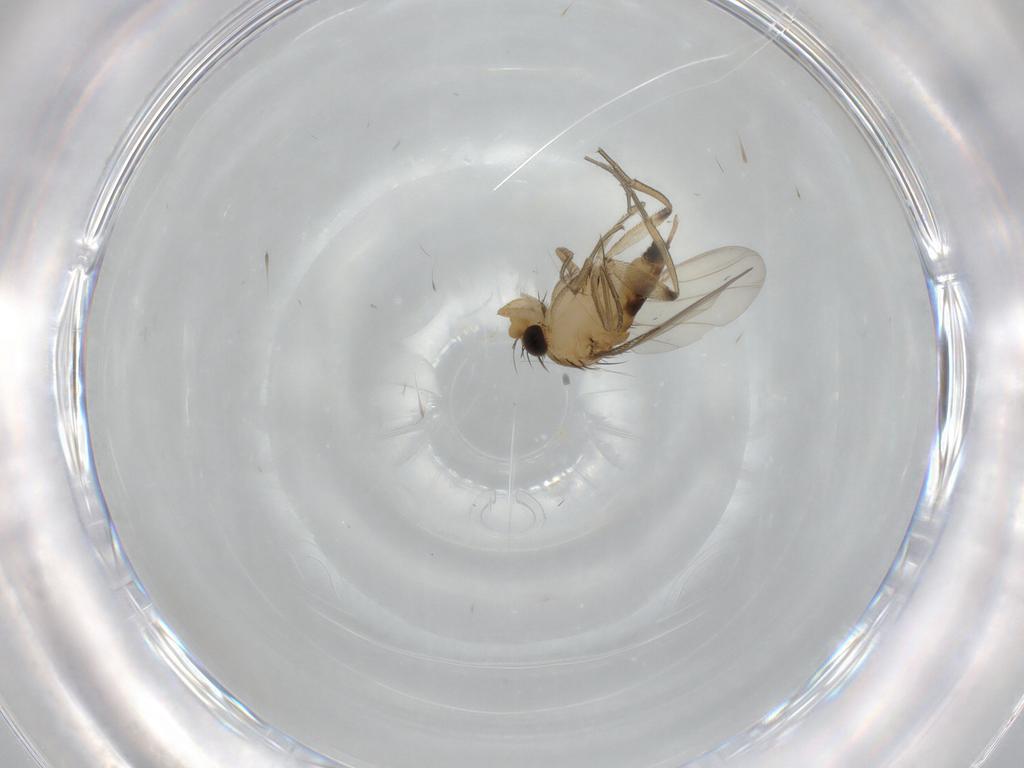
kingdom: Animalia
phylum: Arthropoda
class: Insecta
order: Diptera
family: Phoridae
